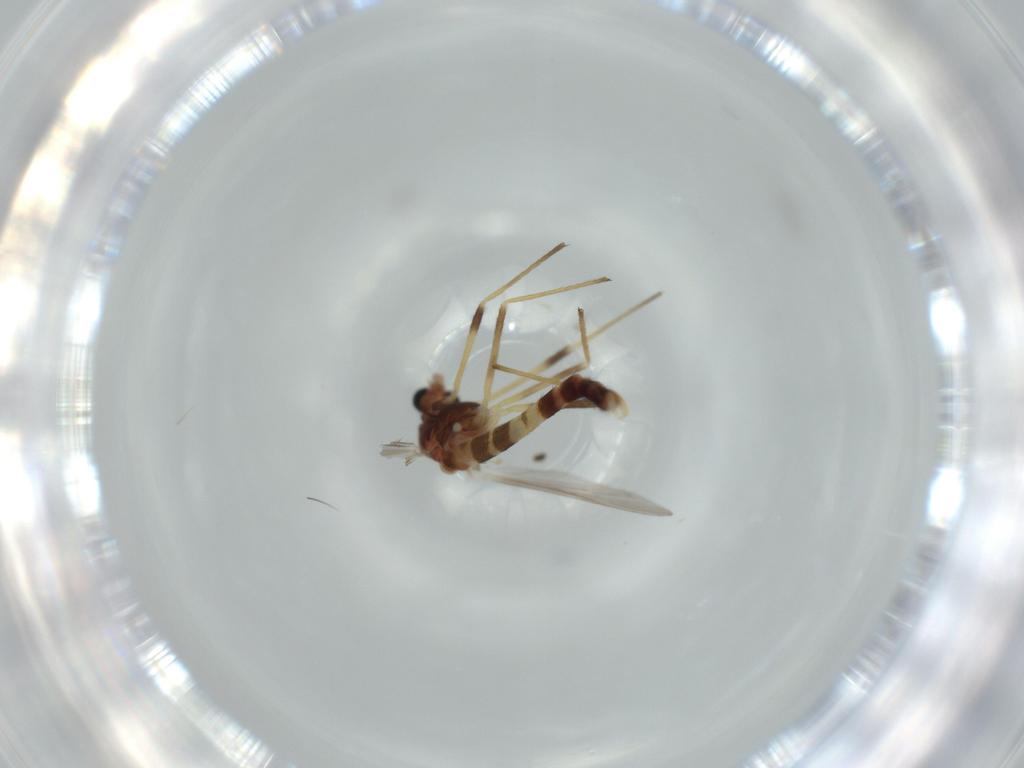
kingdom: Animalia
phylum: Arthropoda
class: Insecta
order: Diptera
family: Chironomidae
